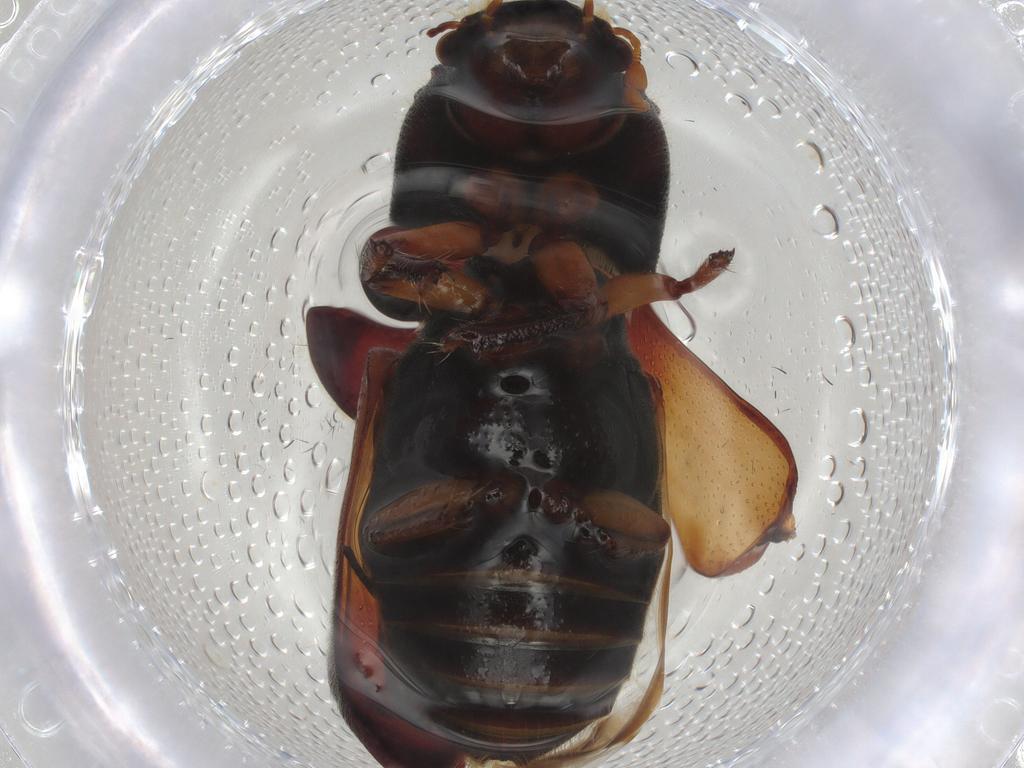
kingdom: Animalia
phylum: Arthropoda
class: Insecta
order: Coleoptera
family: Bostrichidae
